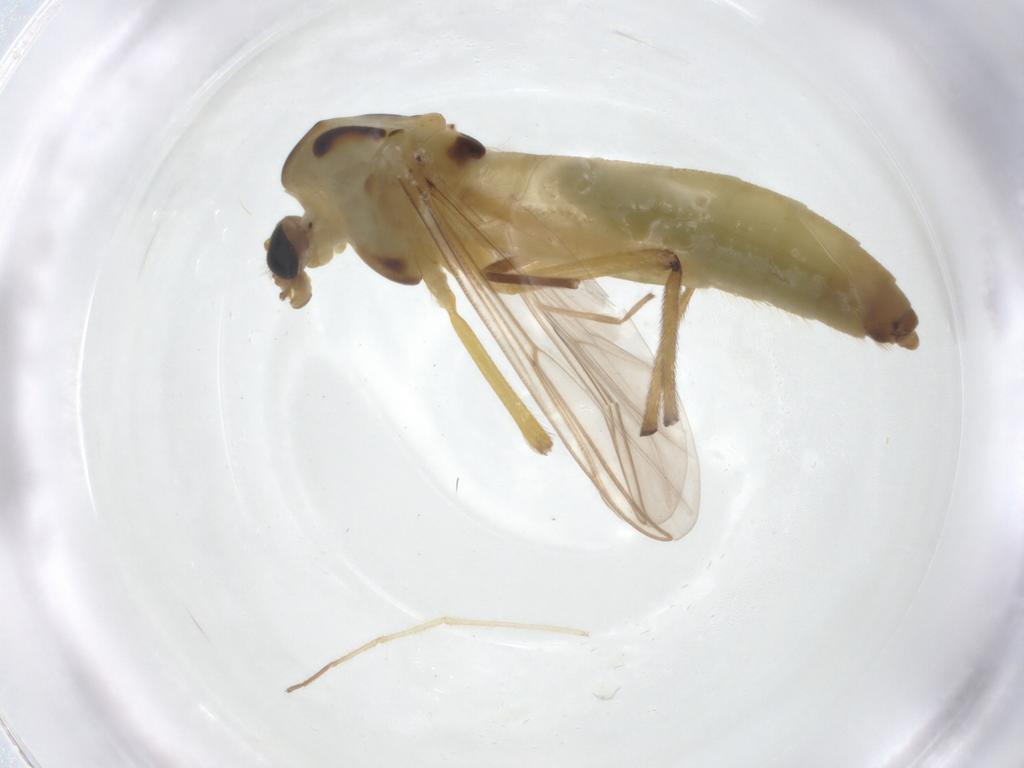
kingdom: Animalia
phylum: Arthropoda
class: Insecta
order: Diptera
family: Chironomidae
